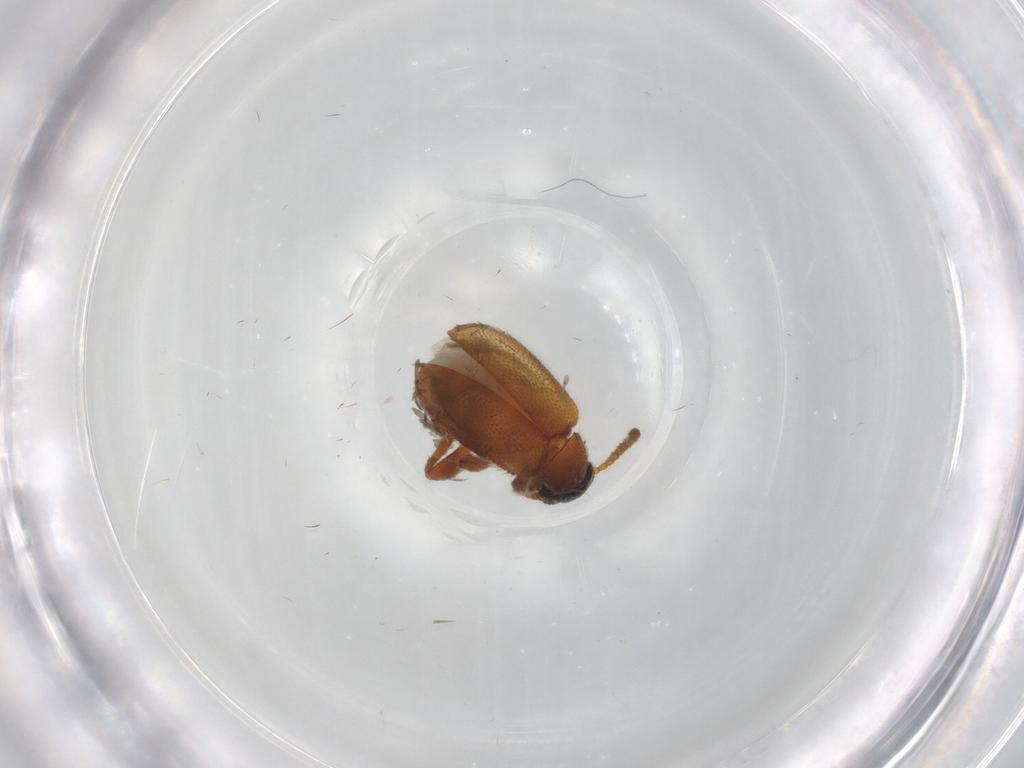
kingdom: Animalia
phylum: Arthropoda
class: Insecta
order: Coleoptera
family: Aderidae
